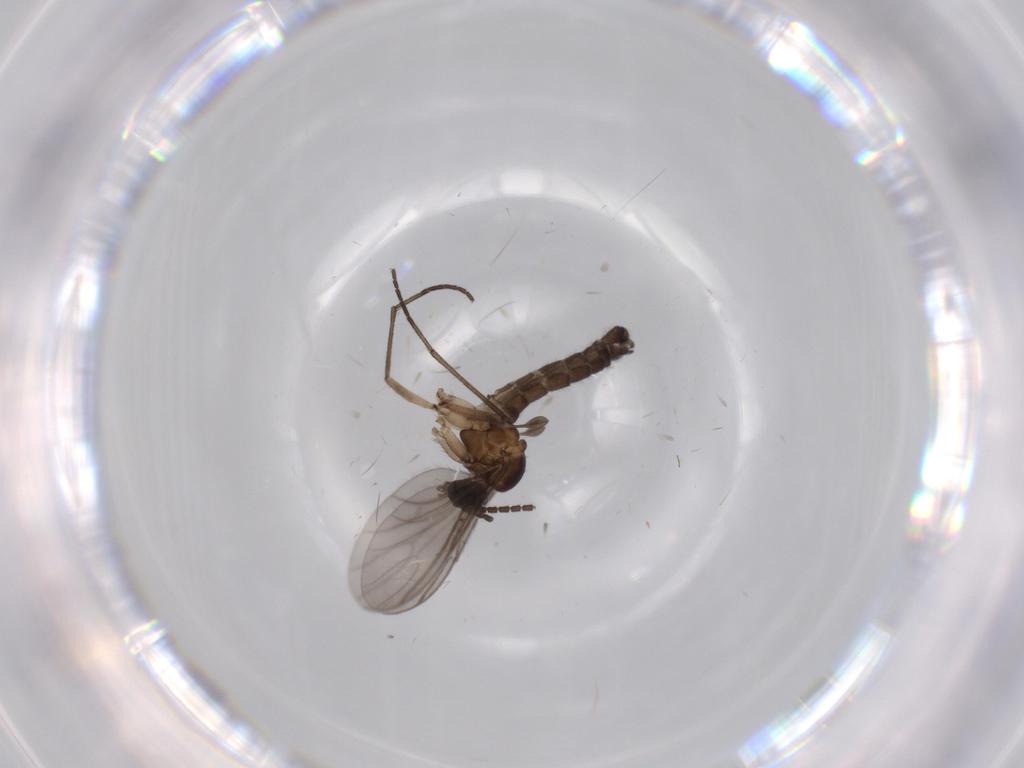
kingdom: Animalia
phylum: Arthropoda
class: Insecta
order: Diptera
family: Sciaridae
